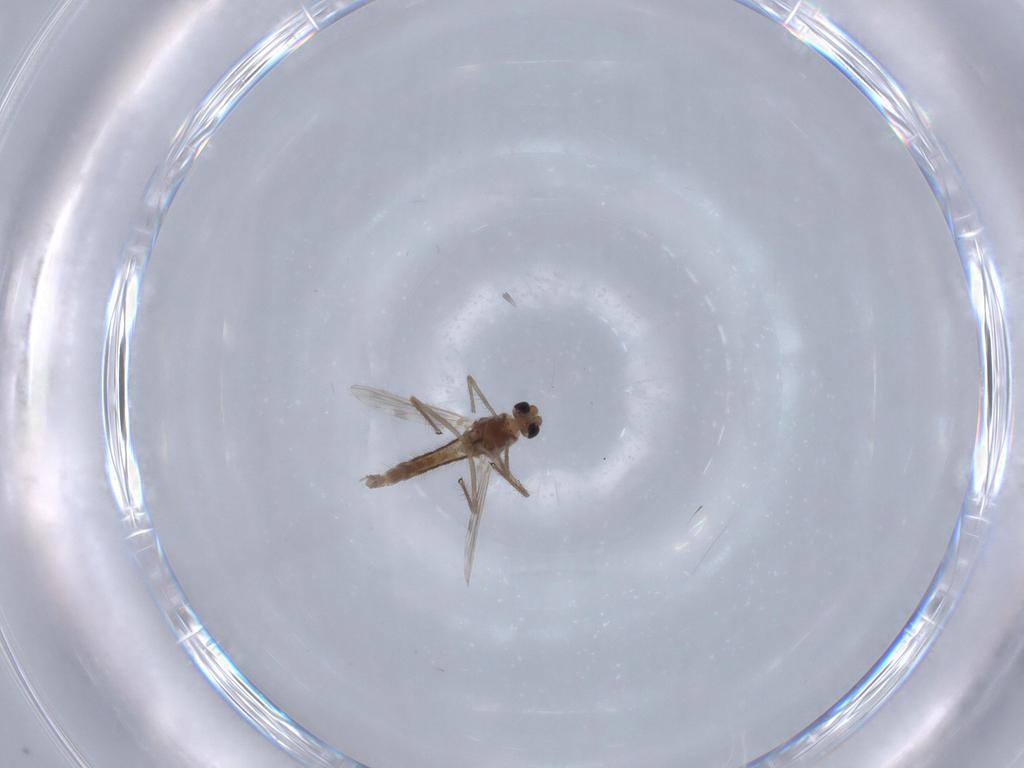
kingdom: Animalia
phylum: Arthropoda
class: Insecta
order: Diptera
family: Chironomidae
